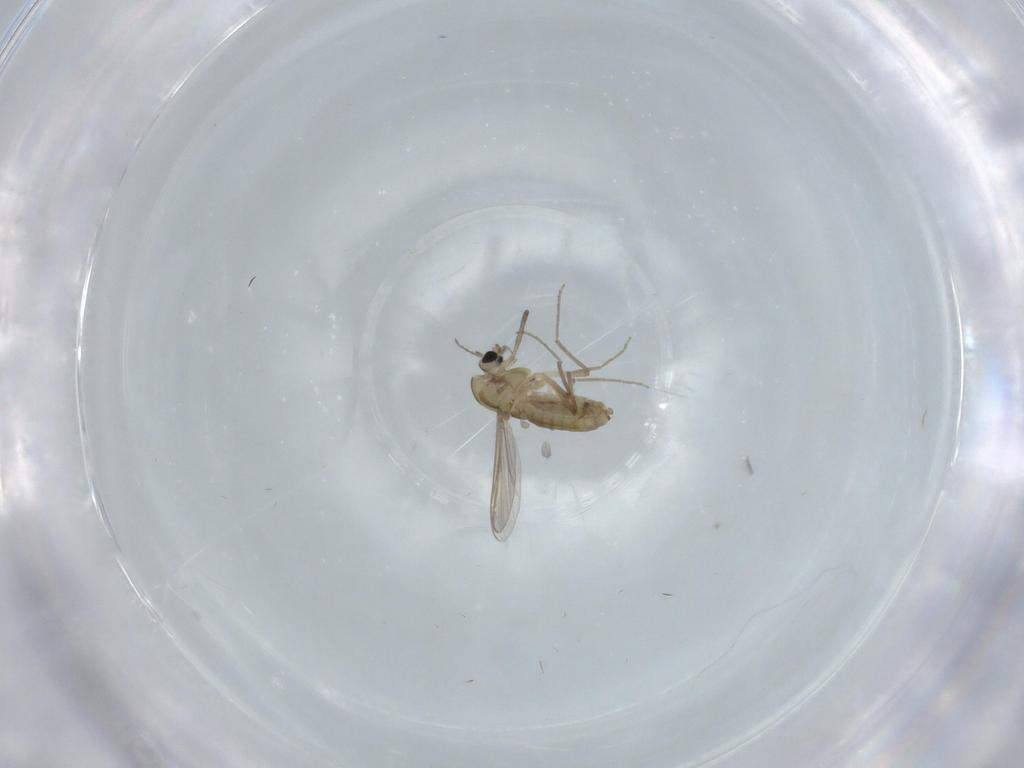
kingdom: Animalia
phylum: Arthropoda
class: Insecta
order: Diptera
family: Chironomidae
